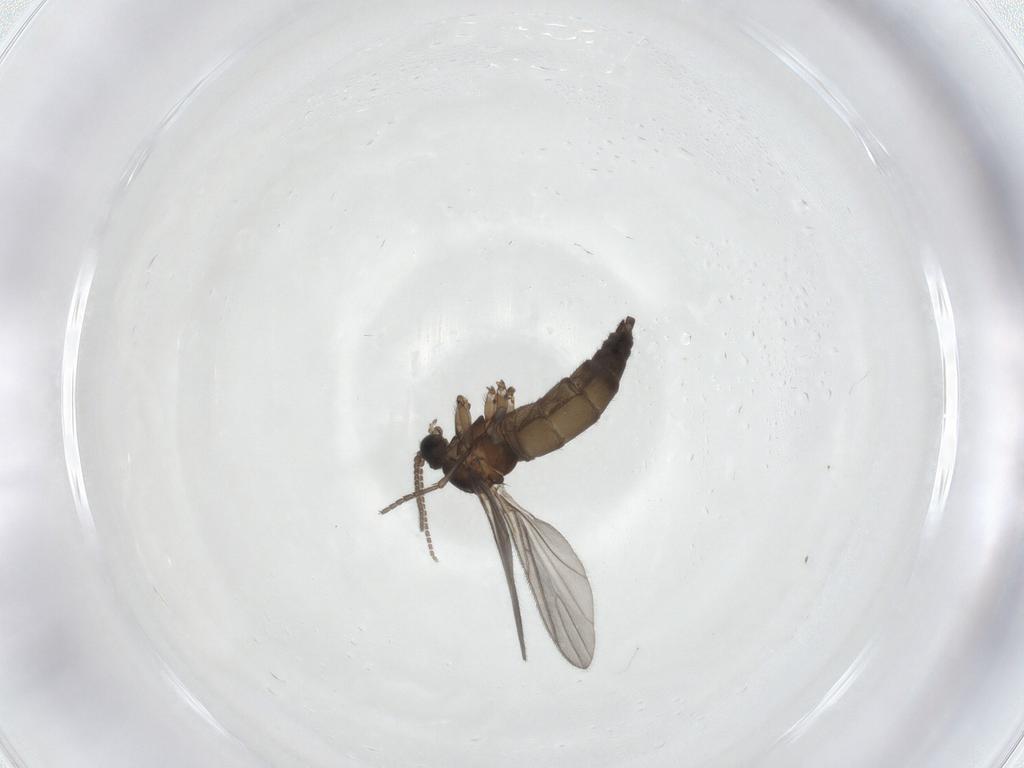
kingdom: Animalia
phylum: Arthropoda
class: Insecta
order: Diptera
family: Sciaridae
